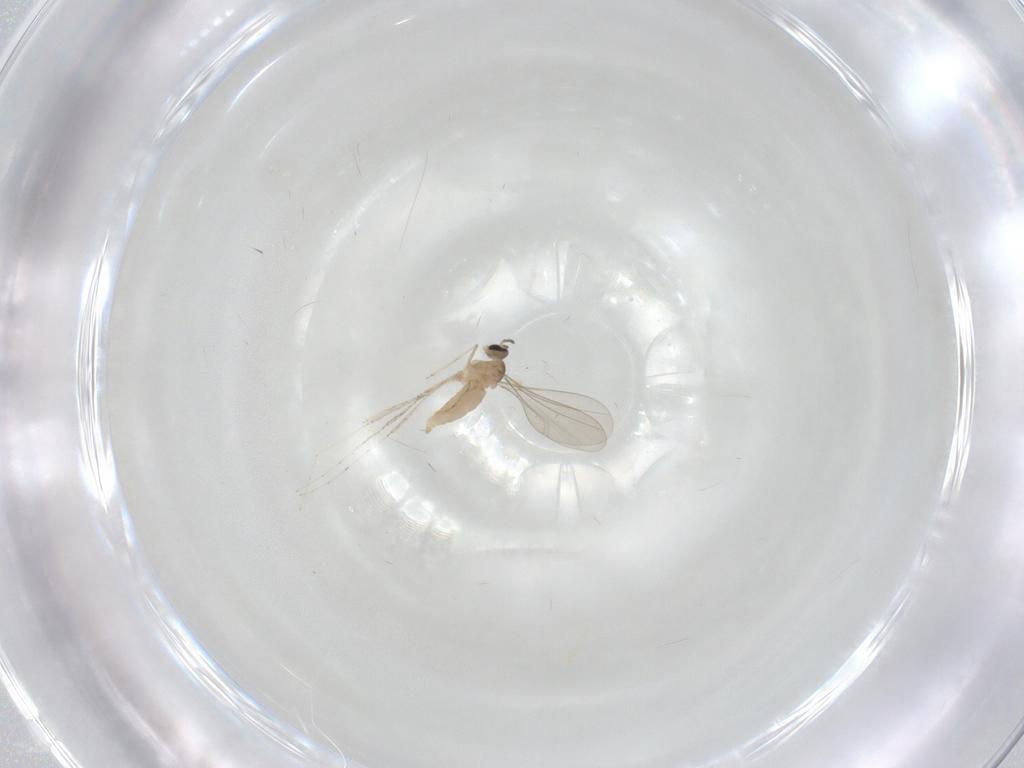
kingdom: Animalia
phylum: Arthropoda
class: Insecta
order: Diptera
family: Cecidomyiidae
